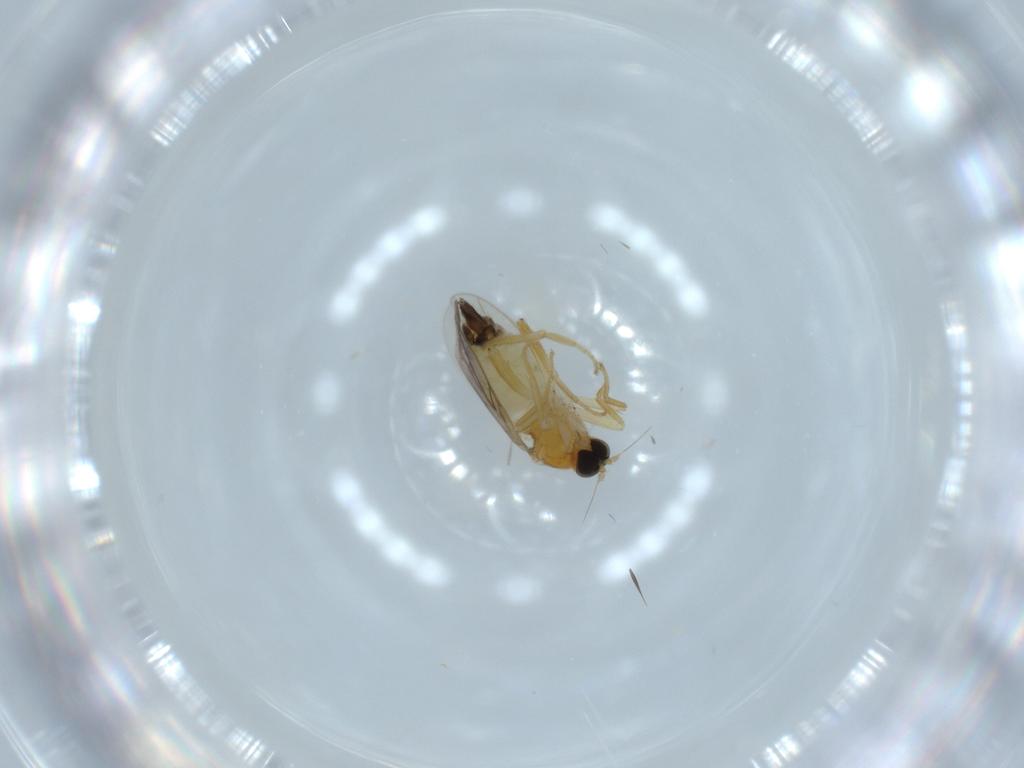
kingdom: Animalia
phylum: Arthropoda
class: Insecta
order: Diptera
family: Hybotidae
